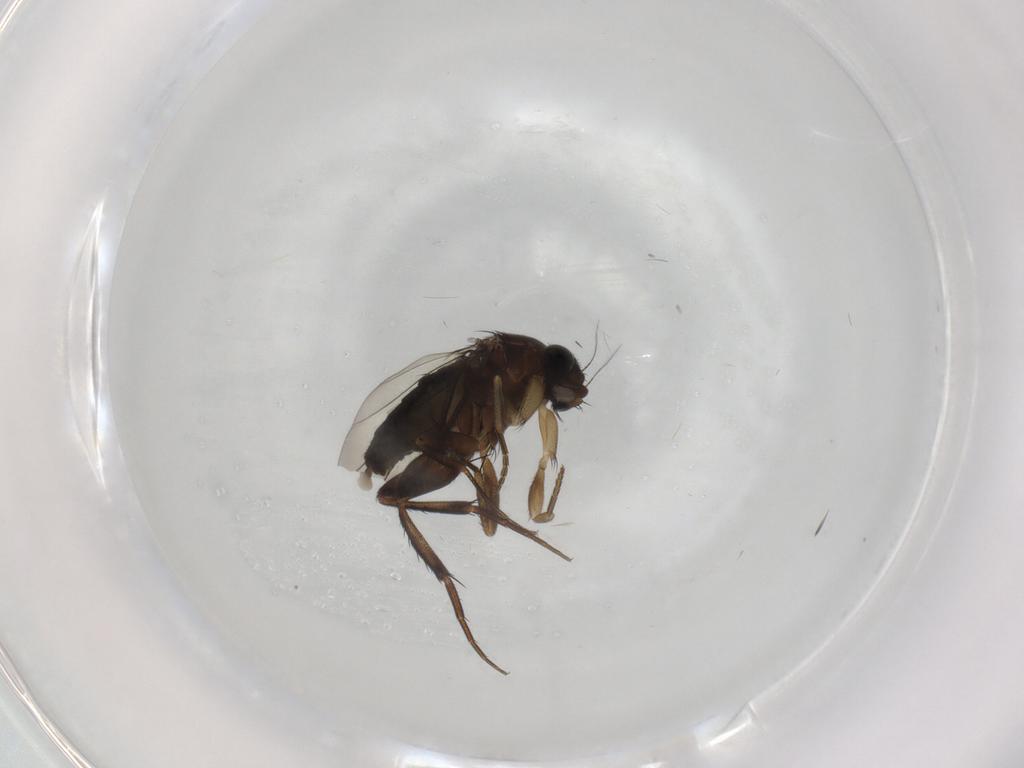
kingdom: Animalia
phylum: Arthropoda
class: Insecta
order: Diptera
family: Phoridae
